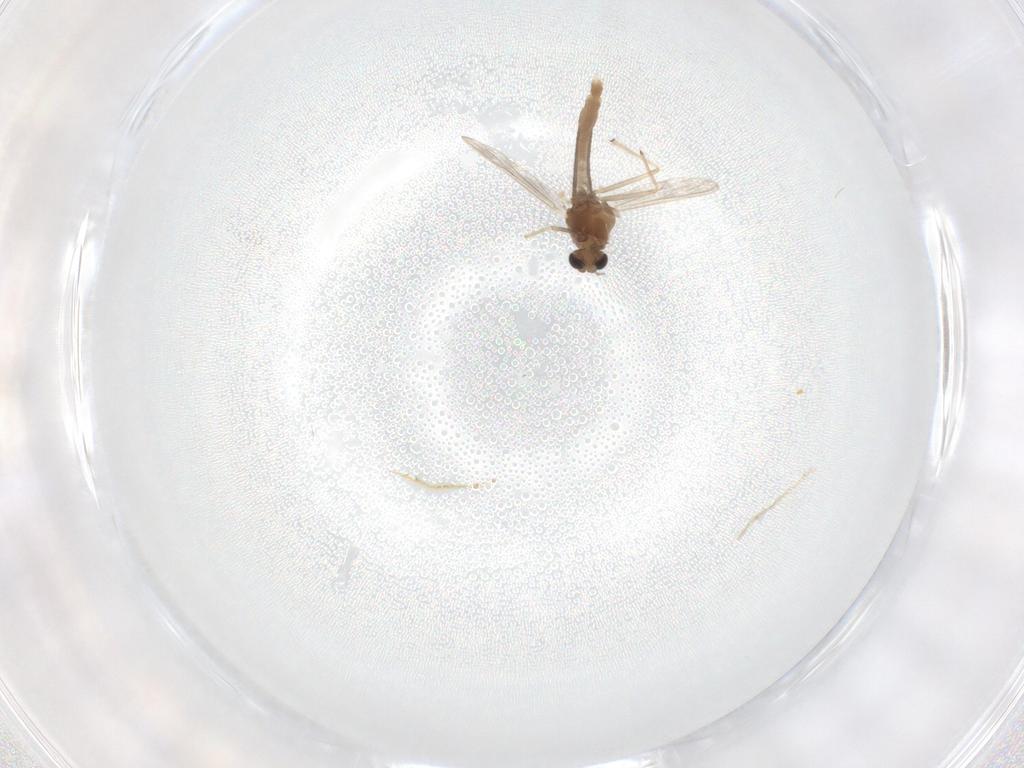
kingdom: Animalia
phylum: Arthropoda
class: Insecta
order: Diptera
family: Chironomidae
